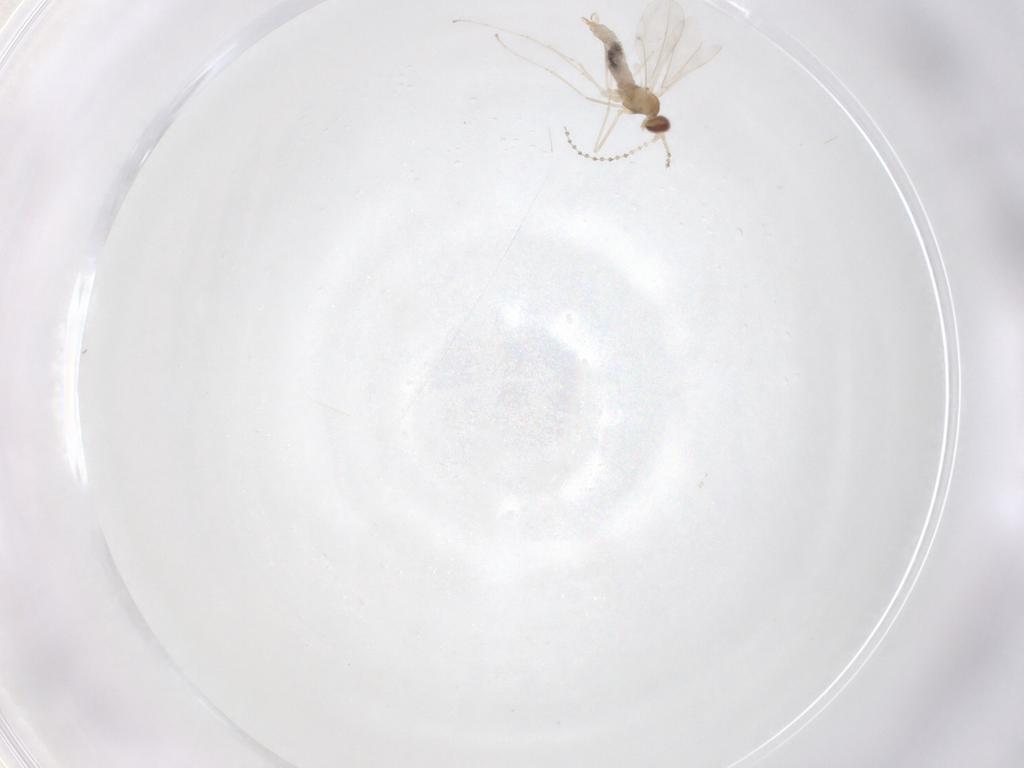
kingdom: Animalia
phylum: Arthropoda
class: Insecta
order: Diptera
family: Cecidomyiidae
